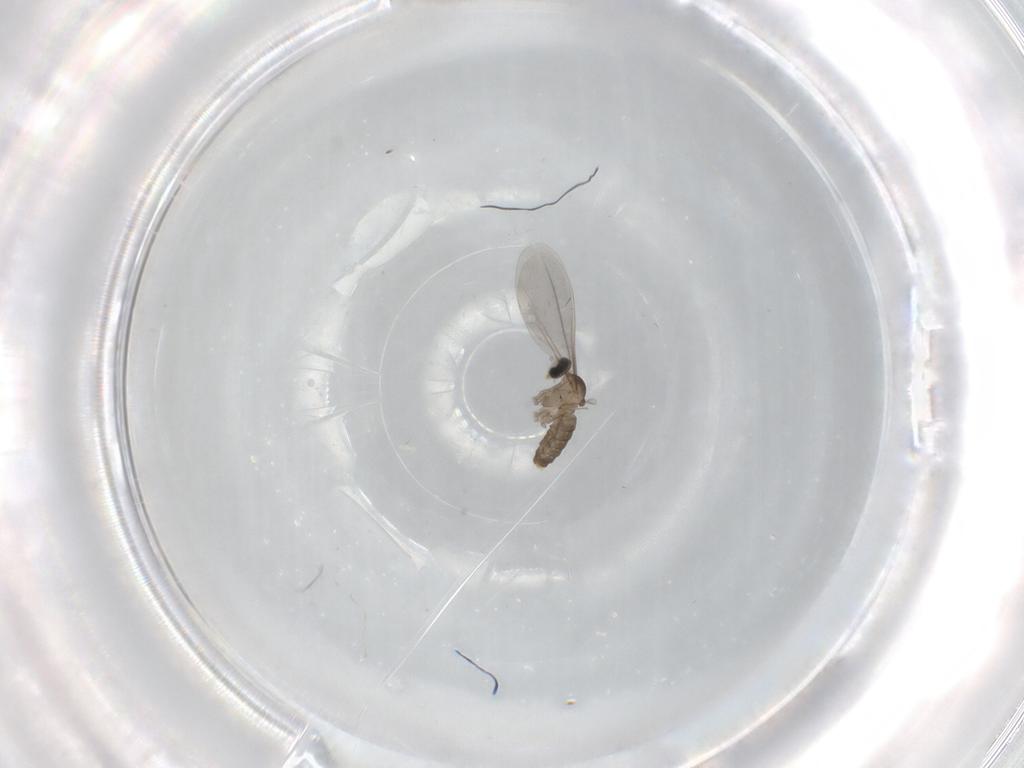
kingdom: Animalia
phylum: Arthropoda
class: Insecta
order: Diptera
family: Cecidomyiidae
